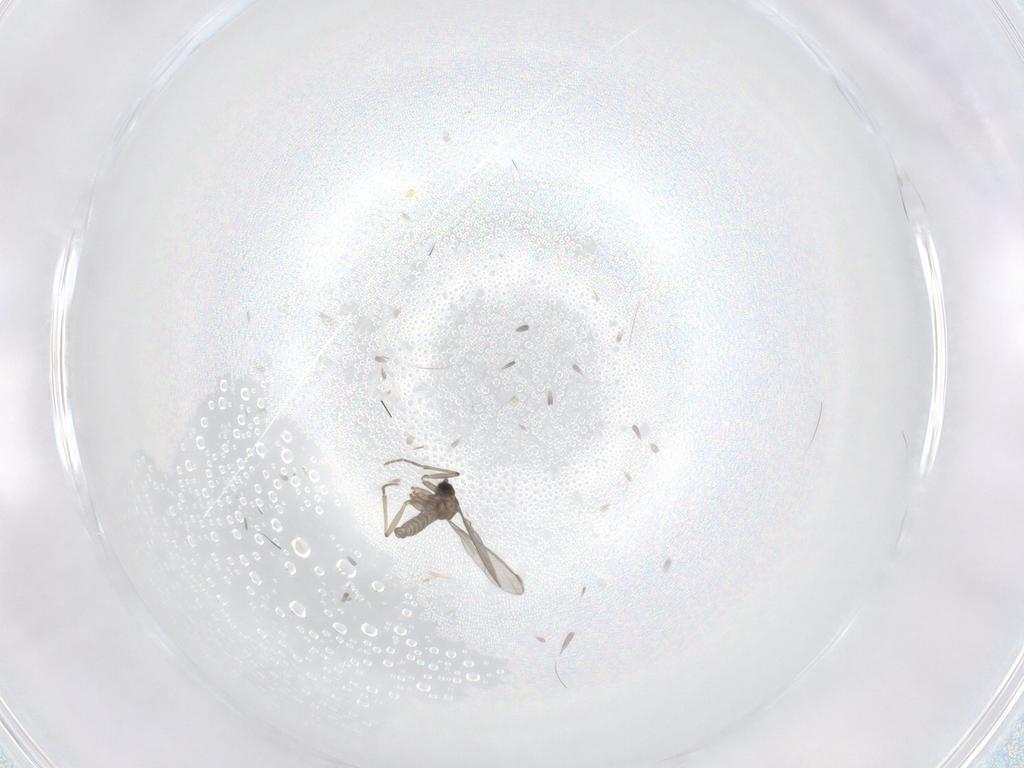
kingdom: Animalia
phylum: Arthropoda
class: Insecta
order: Diptera
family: Sciaridae
